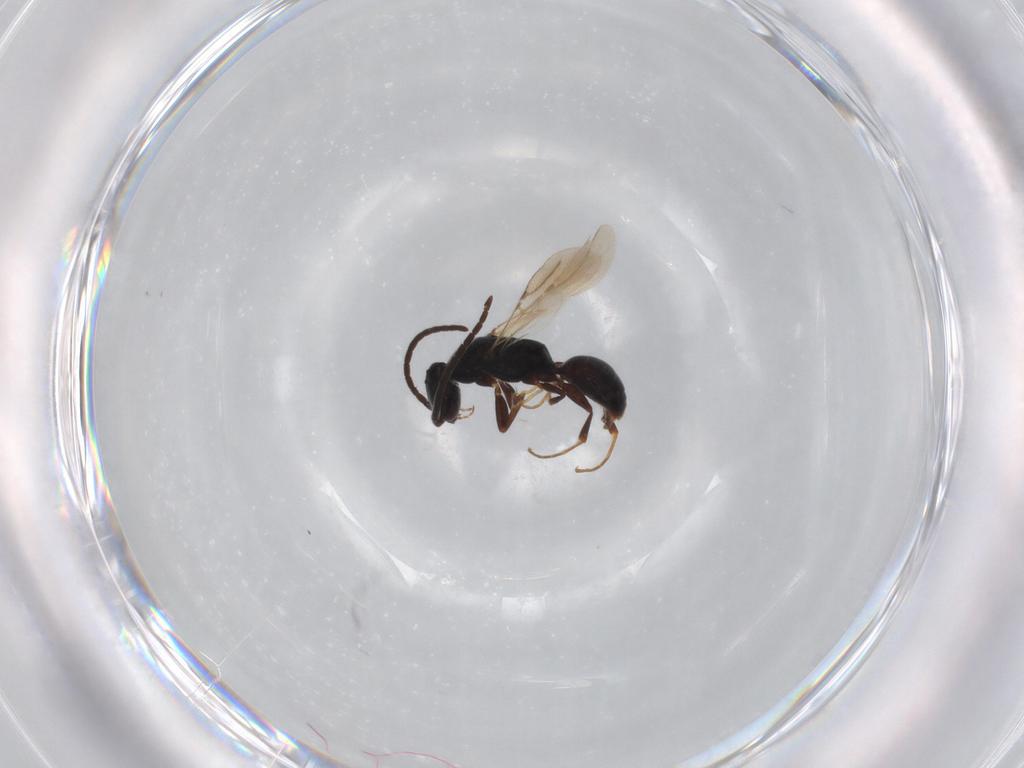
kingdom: Animalia
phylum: Arthropoda
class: Insecta
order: Hymenoptera
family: Bethylidae
